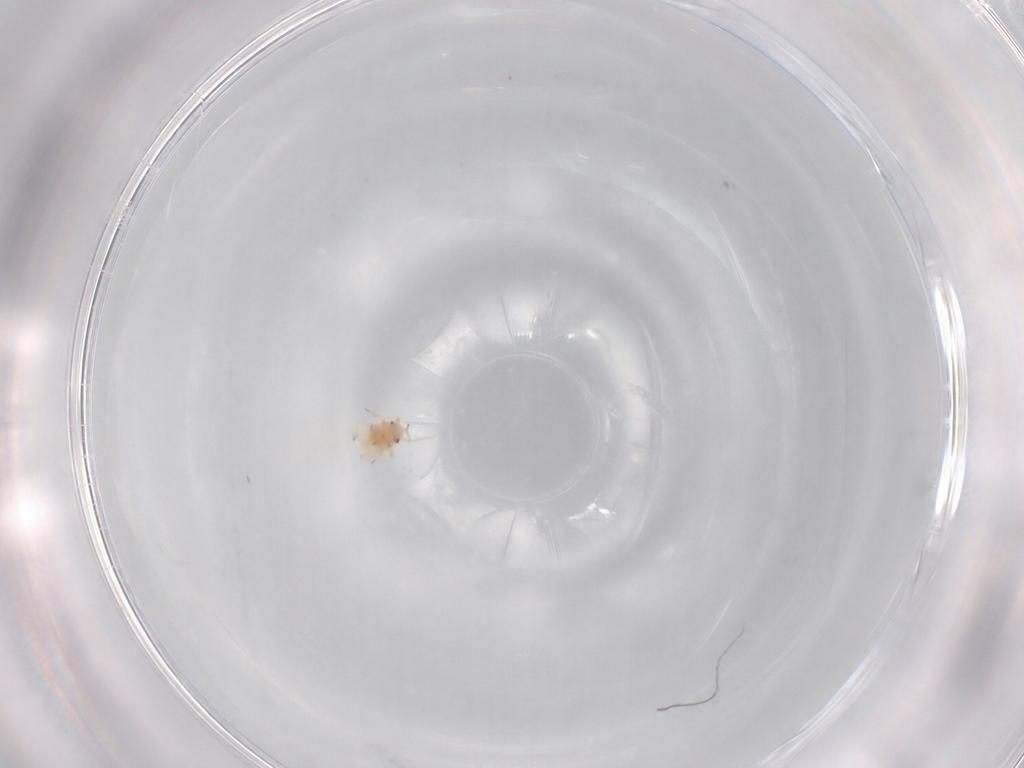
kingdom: Animalia
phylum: Arthropoda
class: Insecta
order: Hemiptera
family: Aphididae
